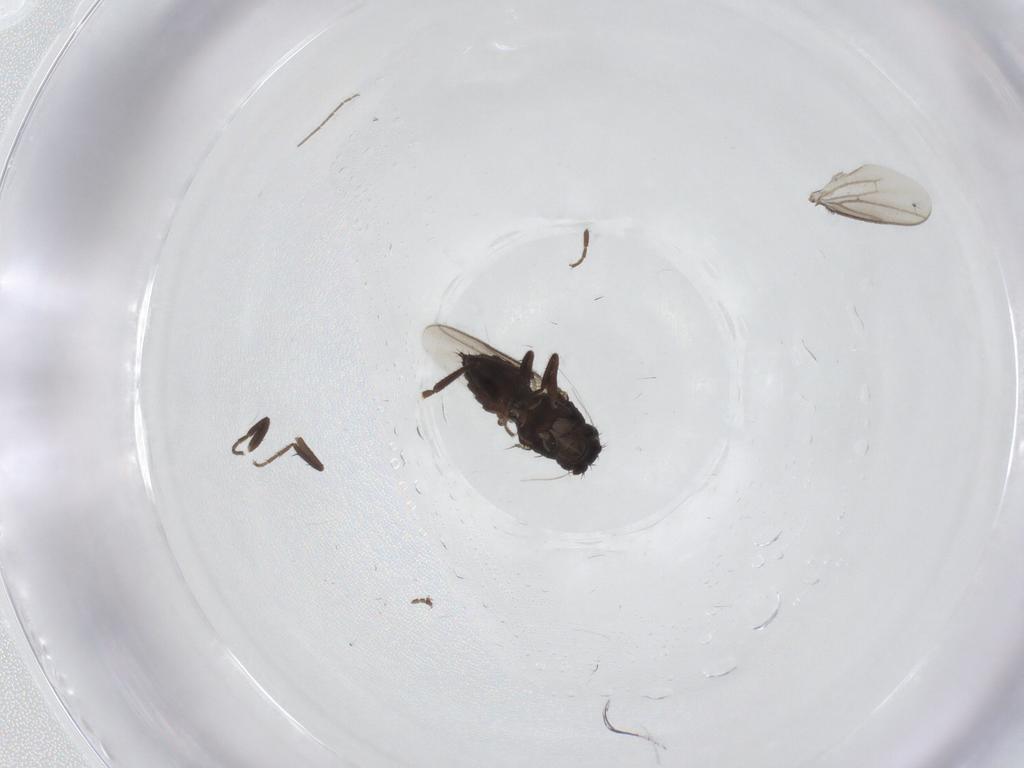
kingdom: Animalia
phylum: Arthropoda
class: Insecta
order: Diptera
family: Sphaeroceridae
